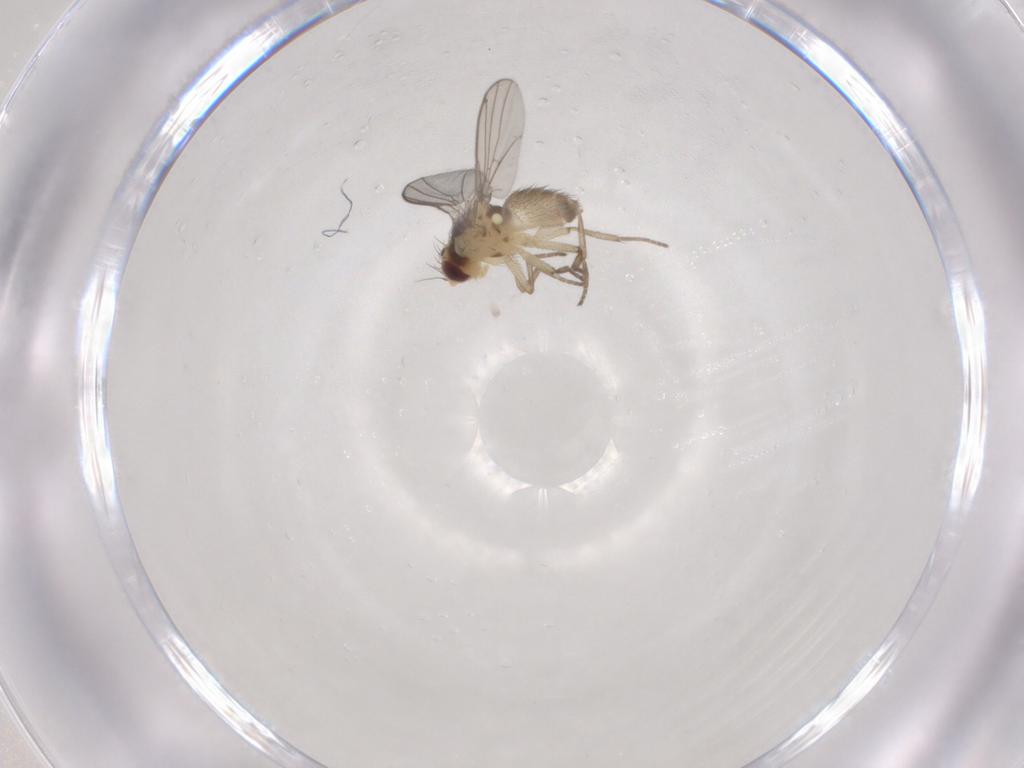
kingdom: Animalia
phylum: Arthropoda
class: Insecta
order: Diptera
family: Agromyzidae
